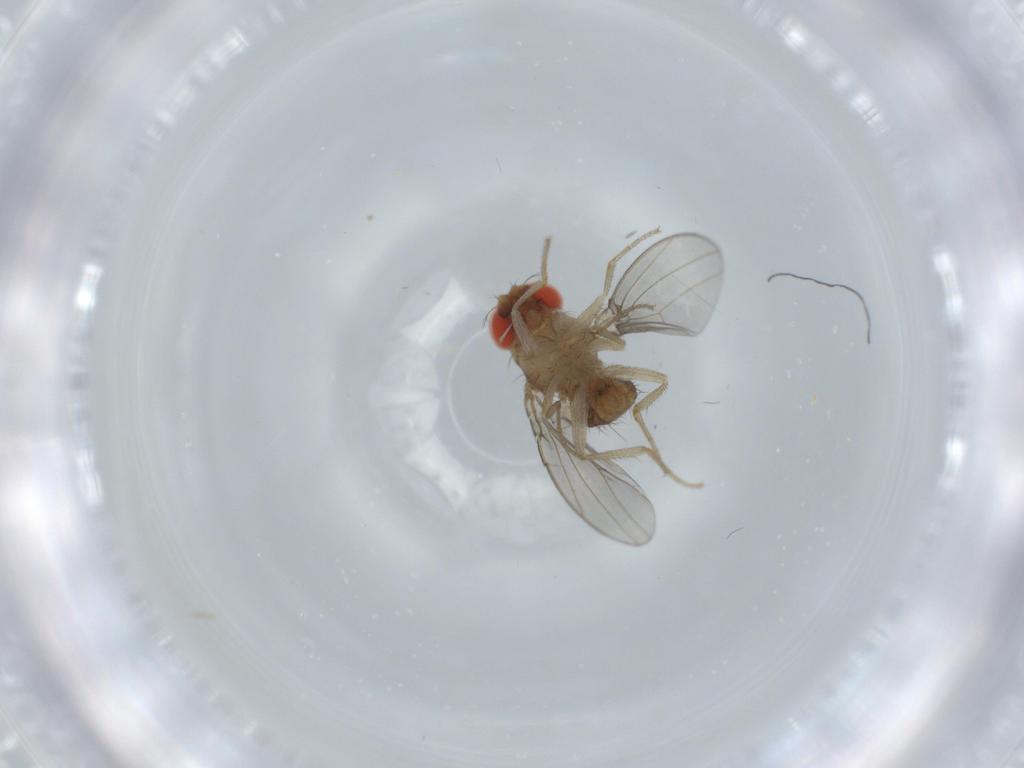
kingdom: Animalia
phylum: Arthropoda
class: Insecta
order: Diptera
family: Drosophilidae
